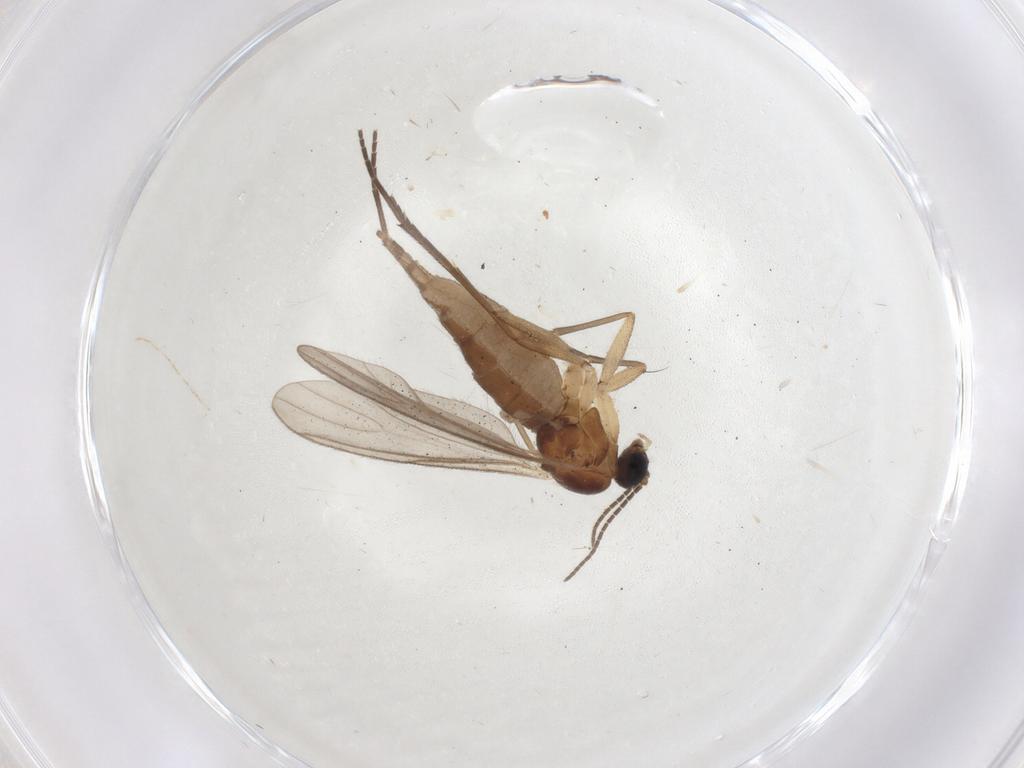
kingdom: Animalia
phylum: Arthropoda
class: Insecta
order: Diptera
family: Sciaridae
